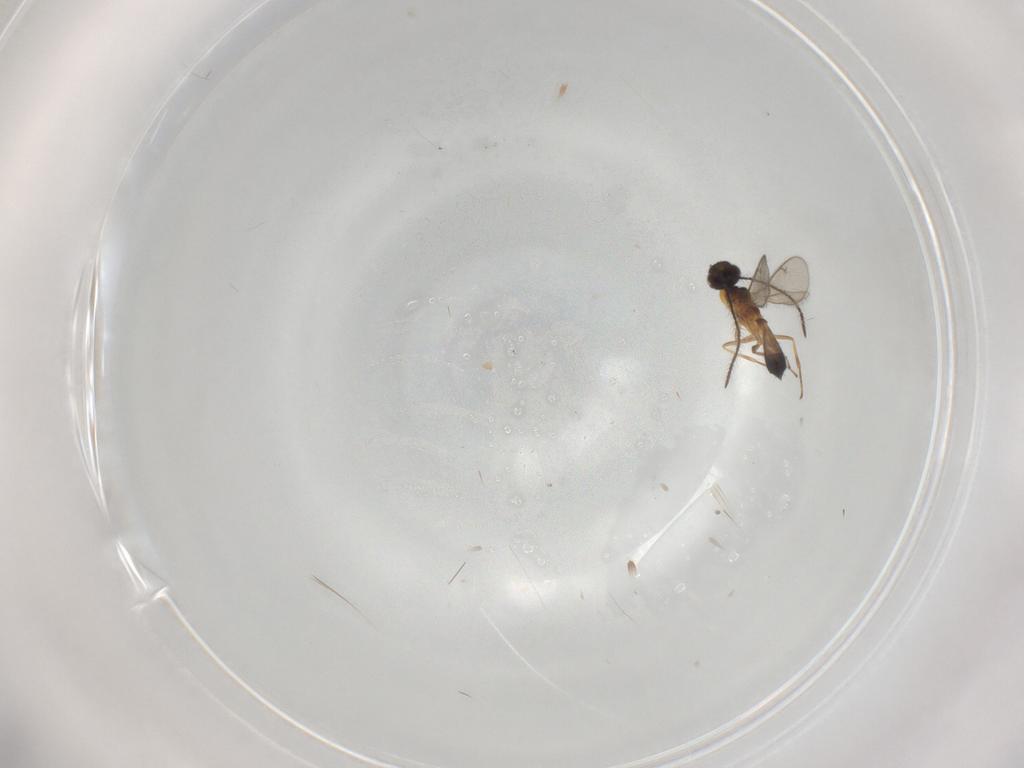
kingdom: Animalia
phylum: Arthropoda
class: Insecta
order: Hymenoptera
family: Eupelmidae
